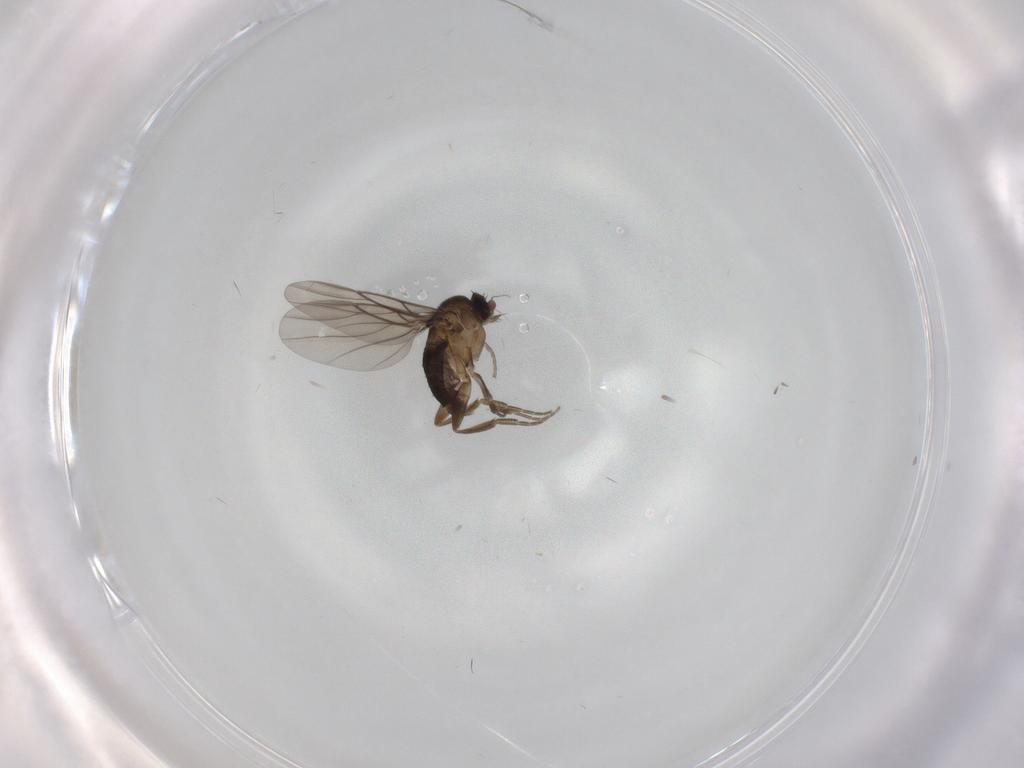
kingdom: Animalia
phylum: Arthropoda
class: Insecta
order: Diptera
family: Phoridae
